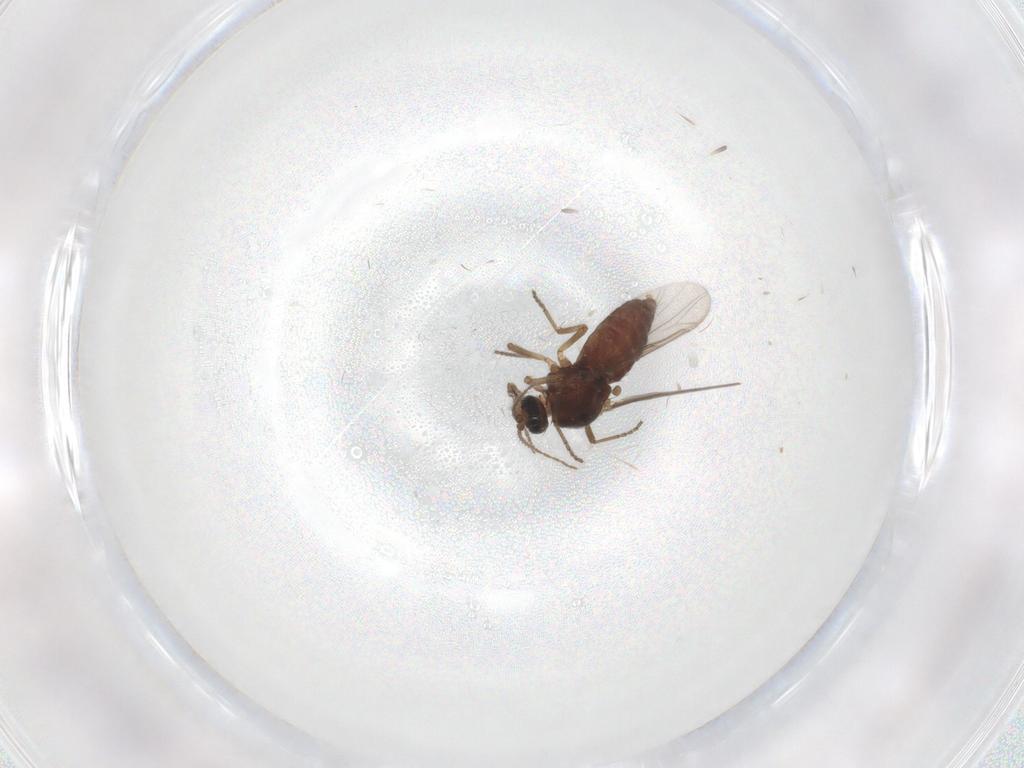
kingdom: Animalia
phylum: Arthropoda
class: Insecta
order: Diptera
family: Ceratopogonidae
